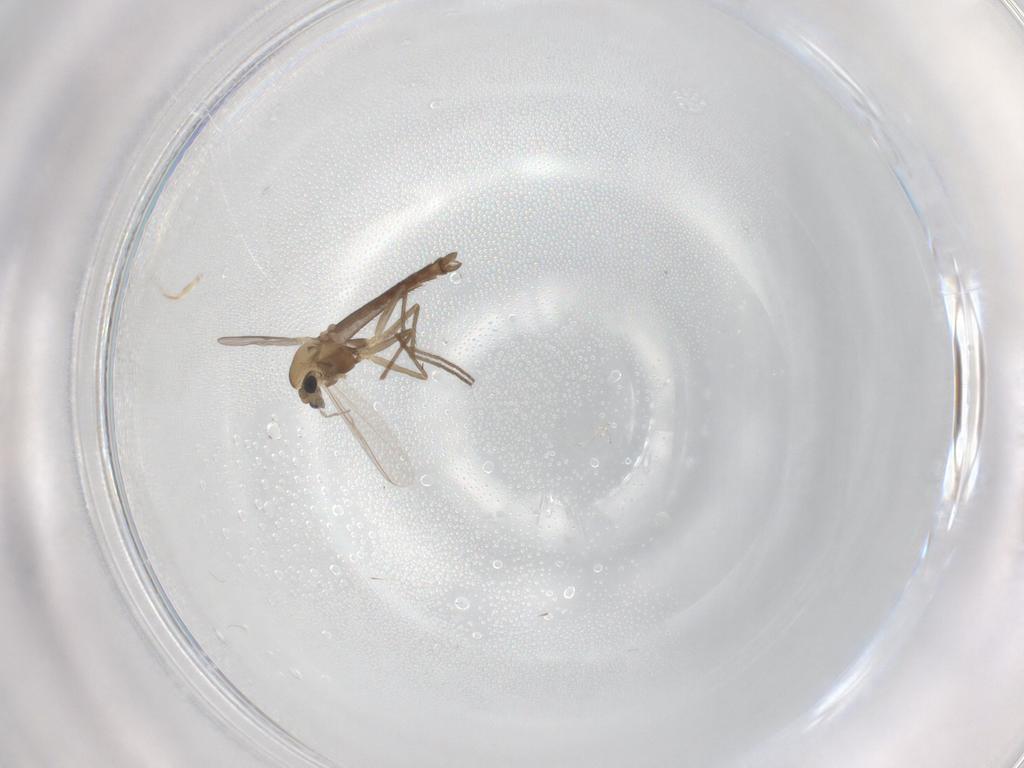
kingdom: Animalia
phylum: Arthropoda
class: Insecta
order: Diptera
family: Chironomidae
